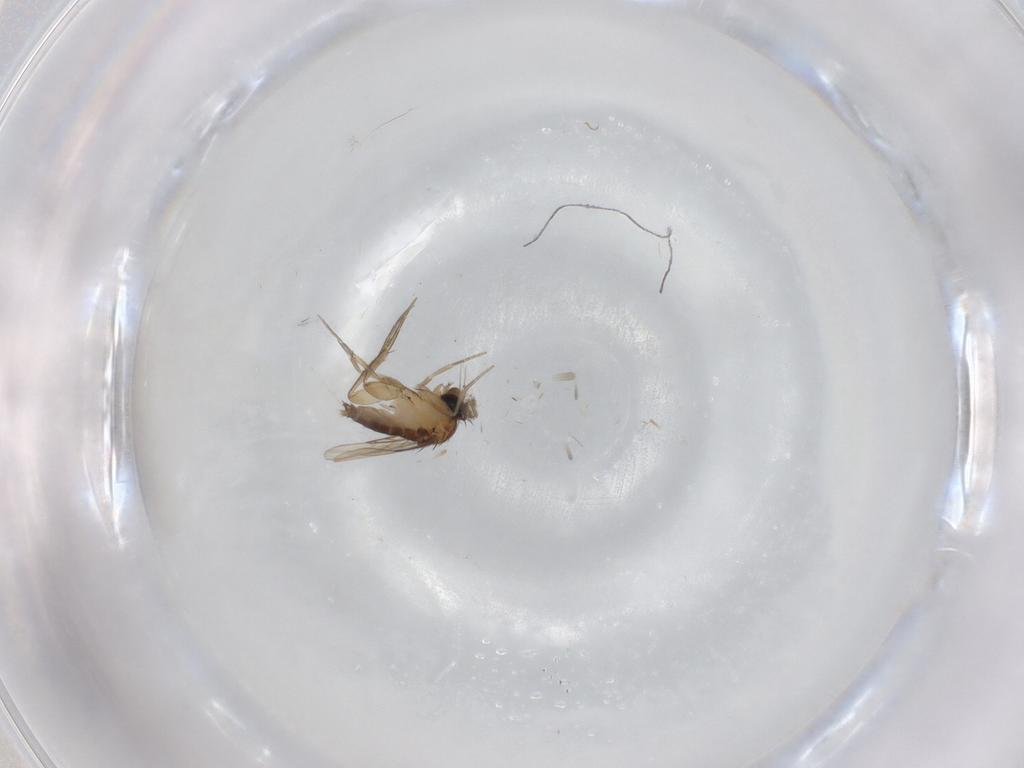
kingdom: Animalia
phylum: Arthropoda
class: Insecta
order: Diptera
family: Phoridae
